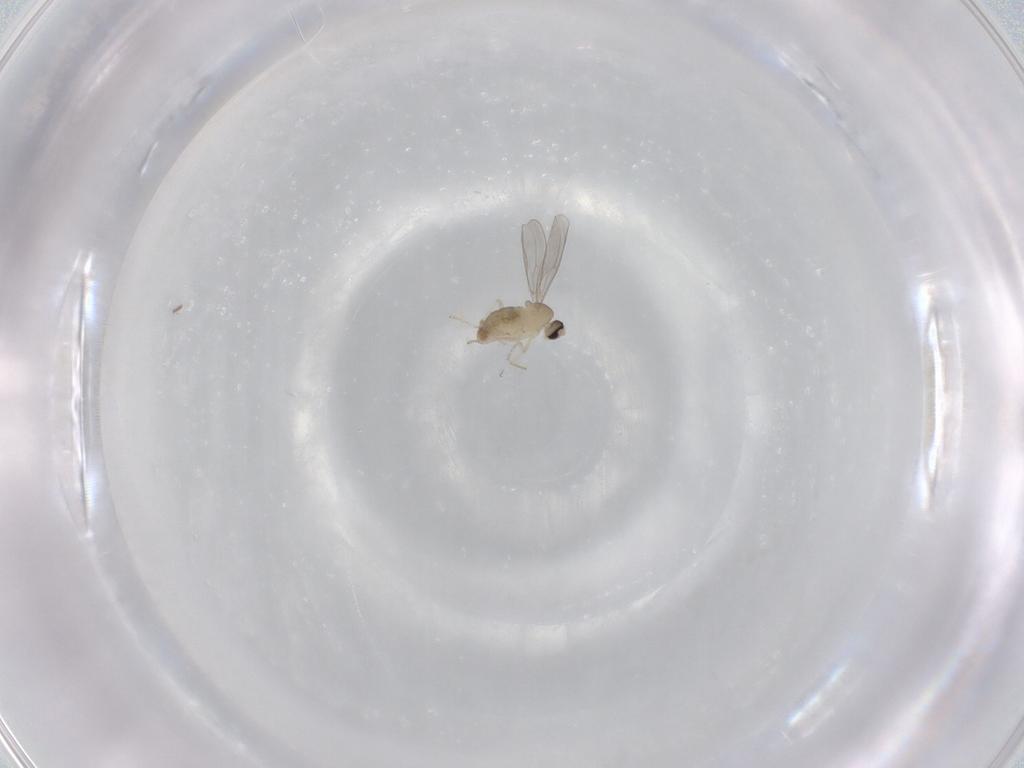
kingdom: Animalia
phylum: Arthropoda
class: Insecta
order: Diptera
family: Cecidomyiidae
